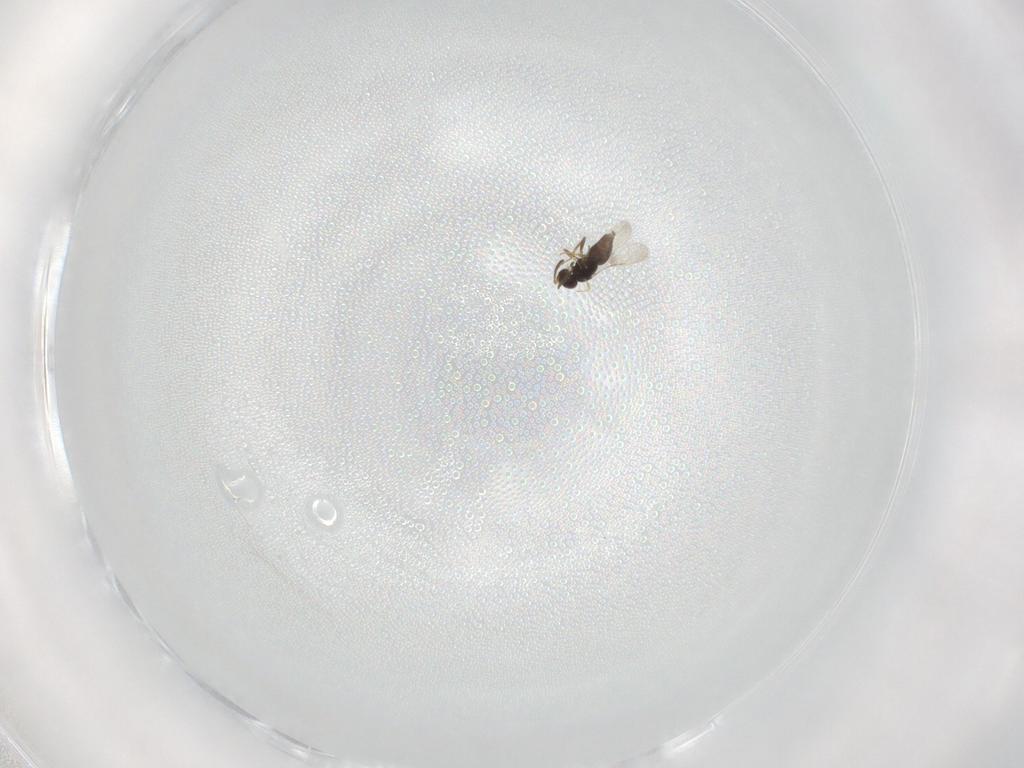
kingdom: Animalia
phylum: Arthropoda
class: Insecta
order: Hymenoptera
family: Ceraphronidae
